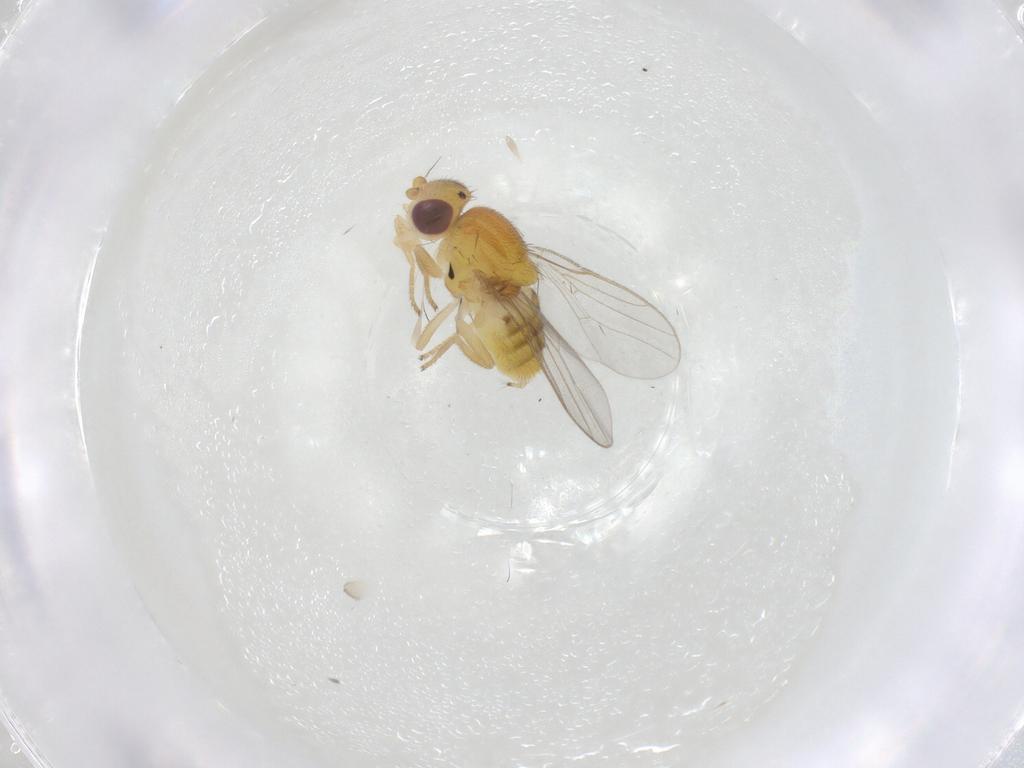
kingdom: Animalia
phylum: Arthropoda
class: Insecta
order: Diptera
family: Chloropidae
